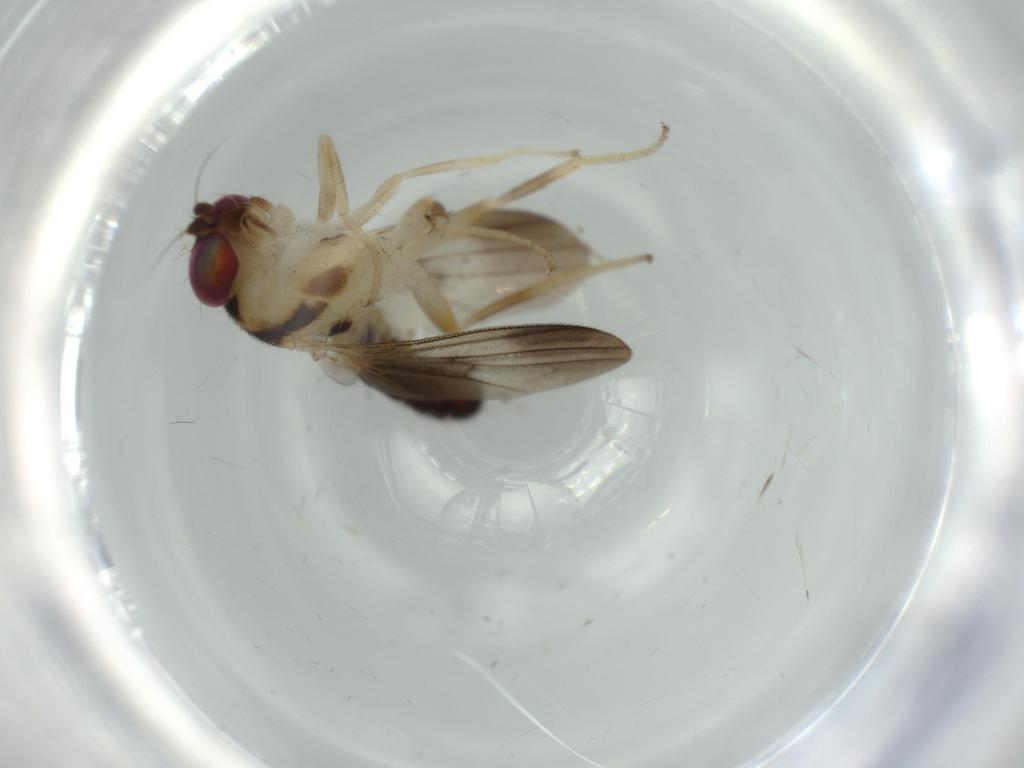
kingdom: Animalia
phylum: Arthropoda
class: Insecta
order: Diptera
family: Clusiidae
